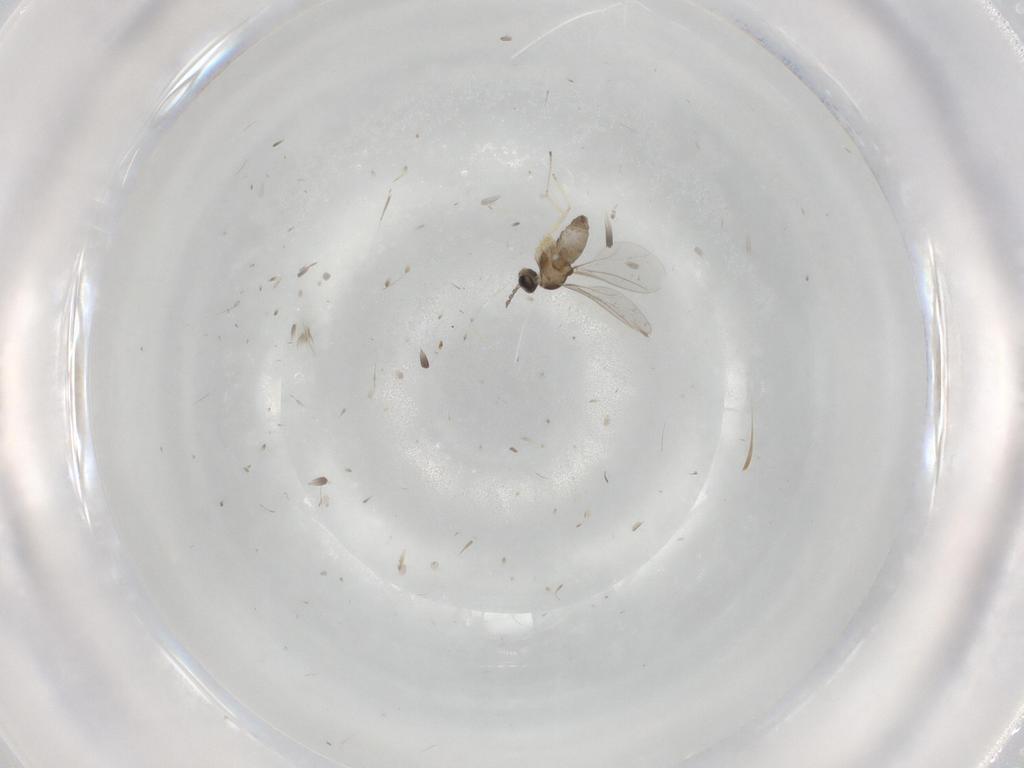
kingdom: Animalia
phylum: Arthropoda
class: Insecta
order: Diptera
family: Cecidomyiidae
